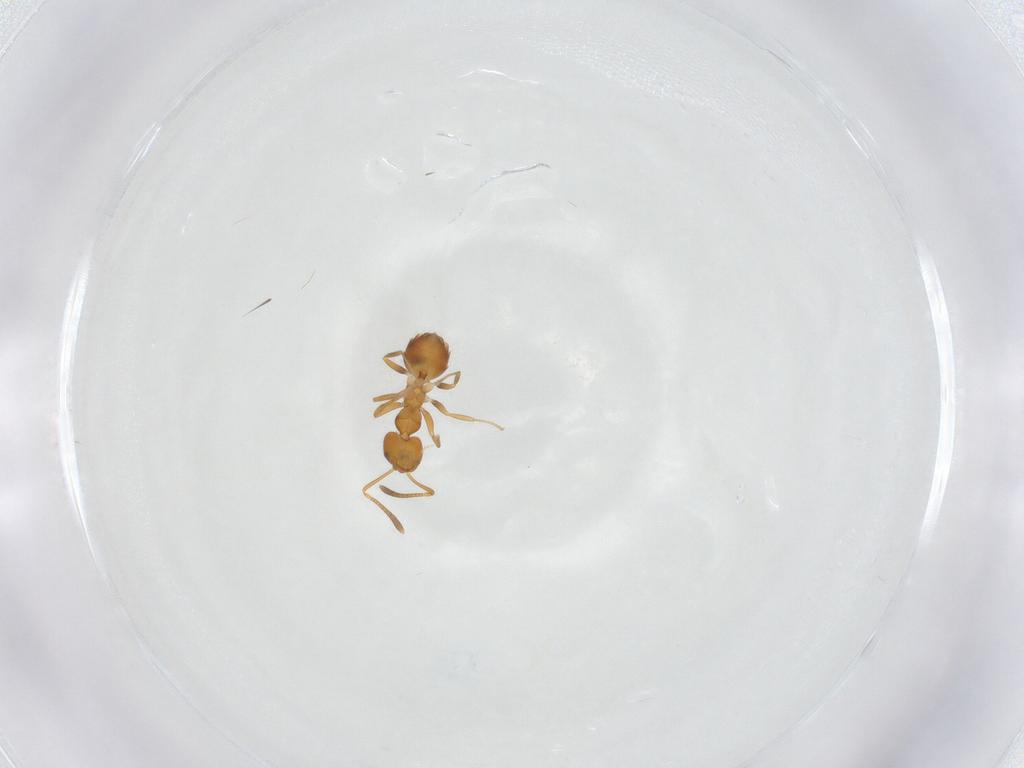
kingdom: Animalia
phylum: Arthropoda
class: Insecta
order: Hymenoptera
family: Formicidae
